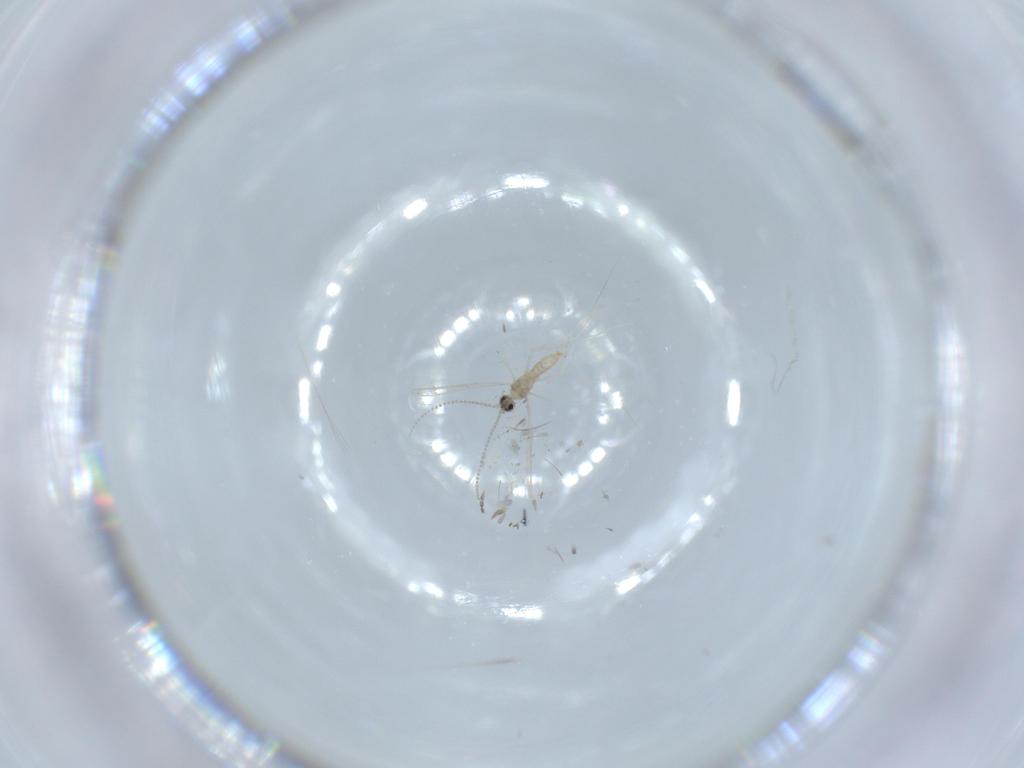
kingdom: Animalia
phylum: Arthropoda
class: Insecta
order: Diptera
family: Cecidomyiidae
